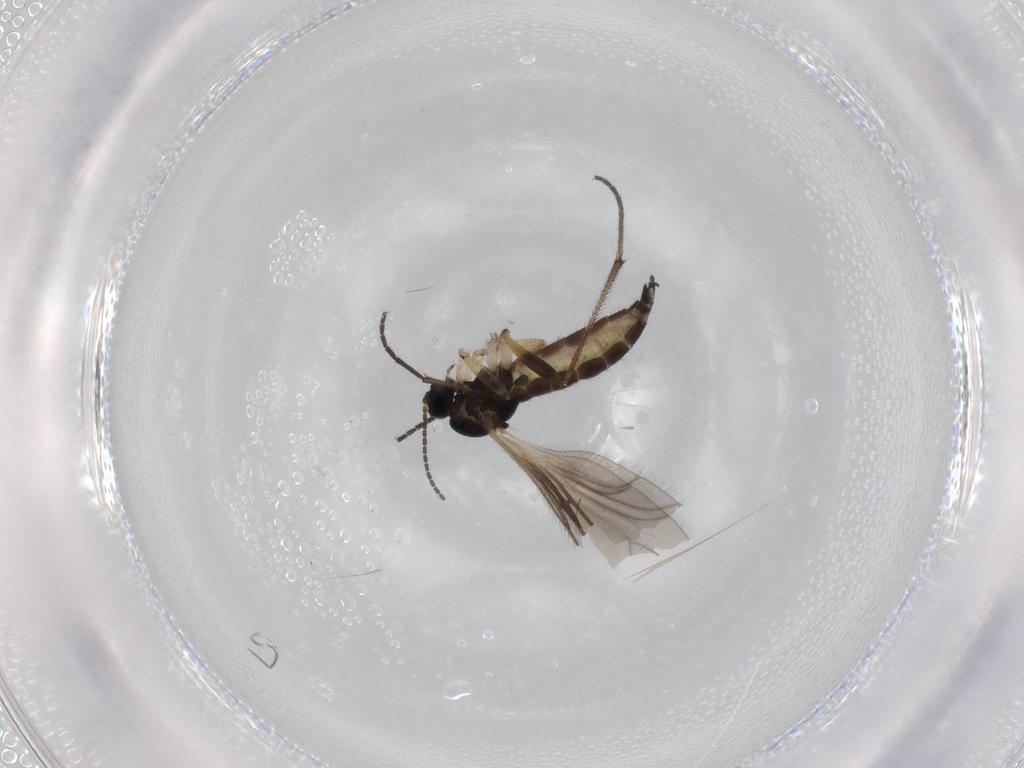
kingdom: Animalia
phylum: Arthropoda
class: Insecta
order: Diptera
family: Sciaridae
